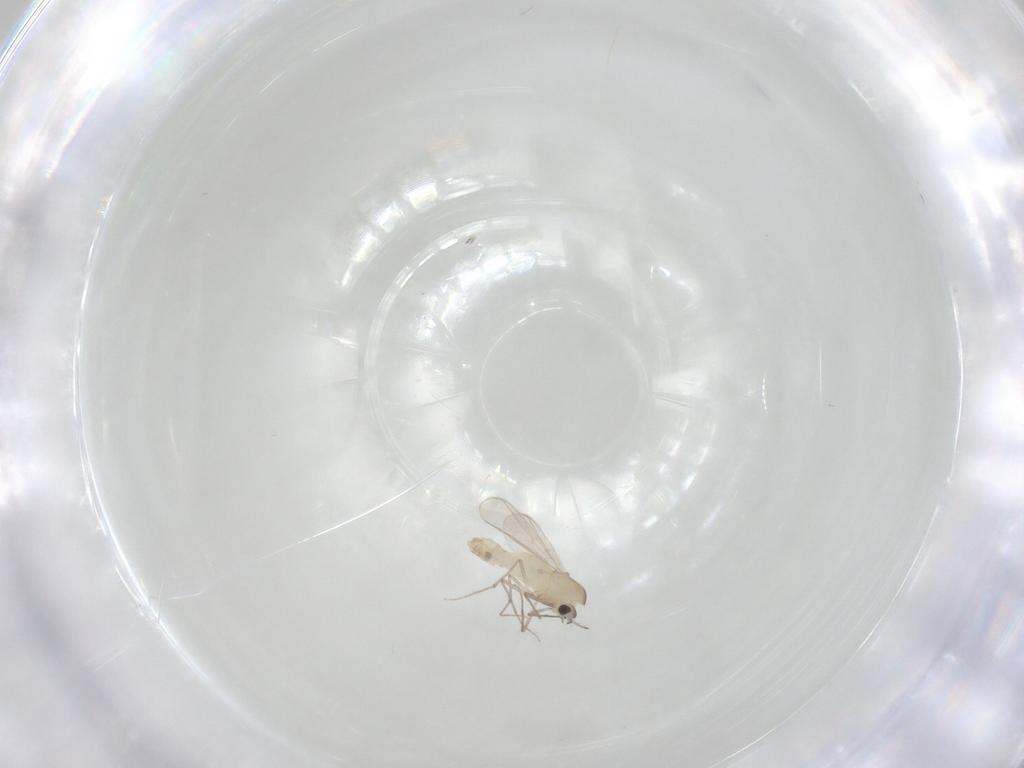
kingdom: Animalia
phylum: Arthropoda
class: Insecta
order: Diptera
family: Chironomidae
